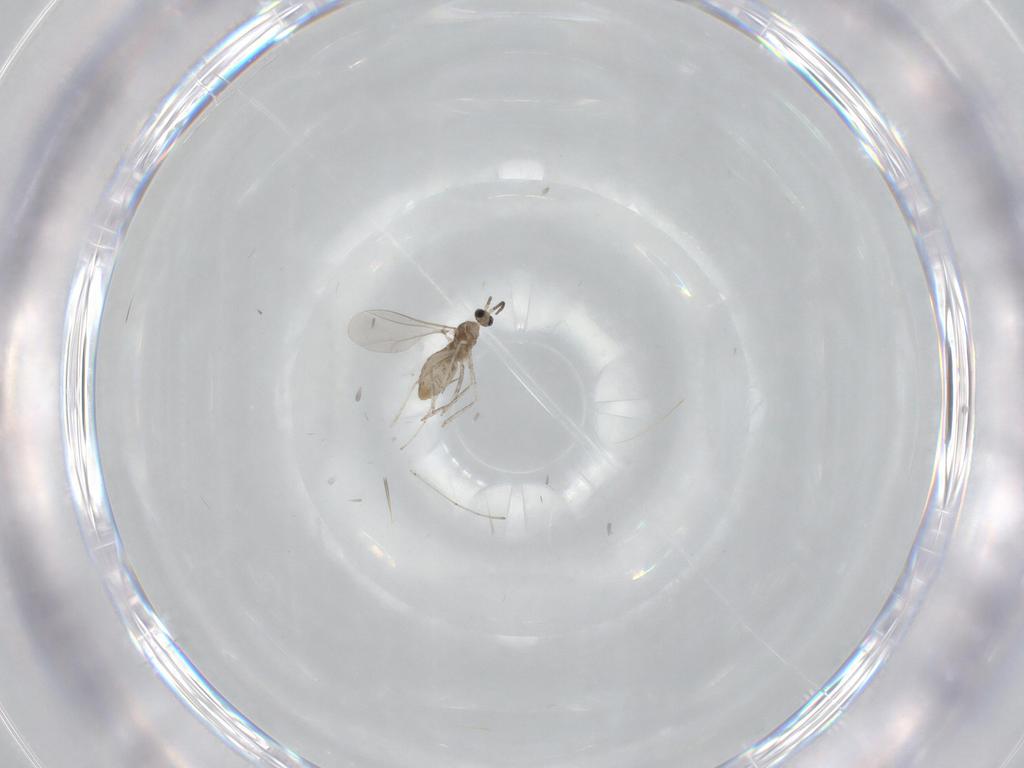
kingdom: Animalia
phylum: Arthropoda
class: Insecta
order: Diptera
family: Cecidomyiidae
